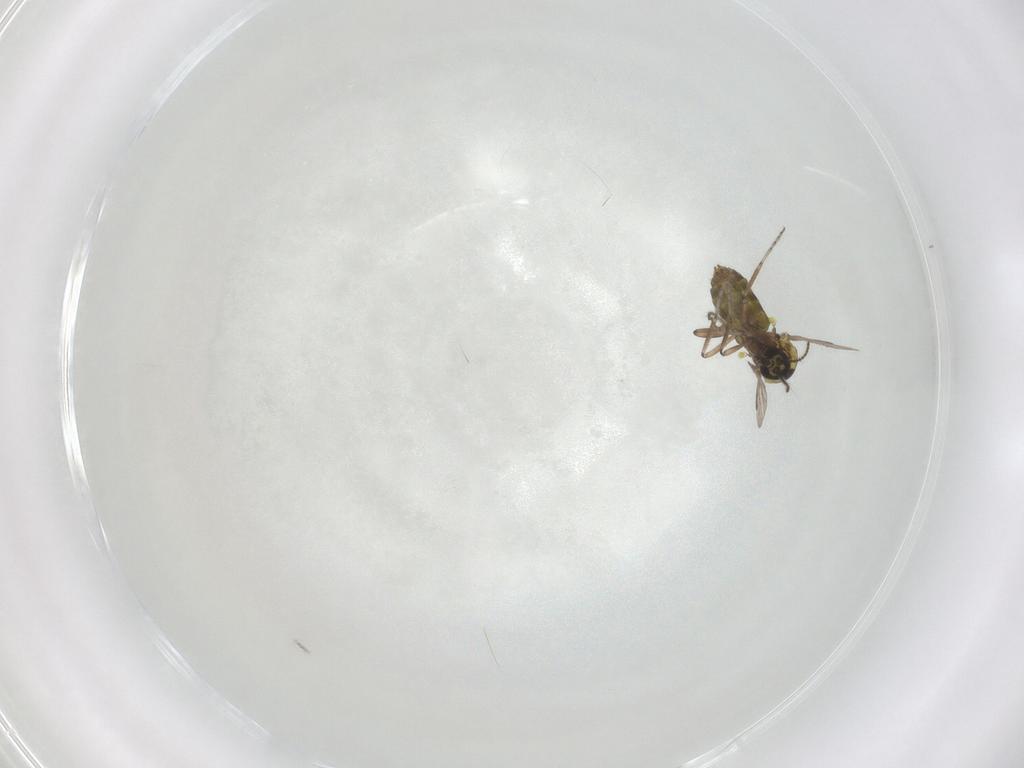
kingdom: Animalia
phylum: Arthropoda
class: Insecta
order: Diptera
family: Ceratopogonidae
